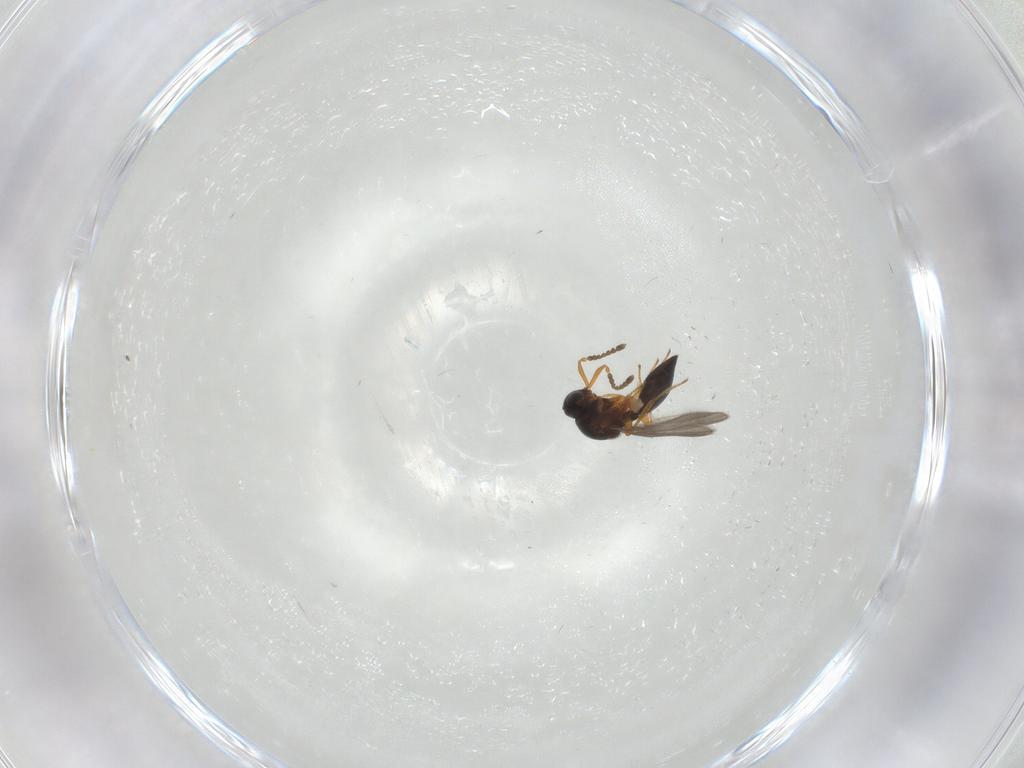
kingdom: Animalia
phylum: Arthropoda
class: Insecta
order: Hymenoptera
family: Platygastridae
